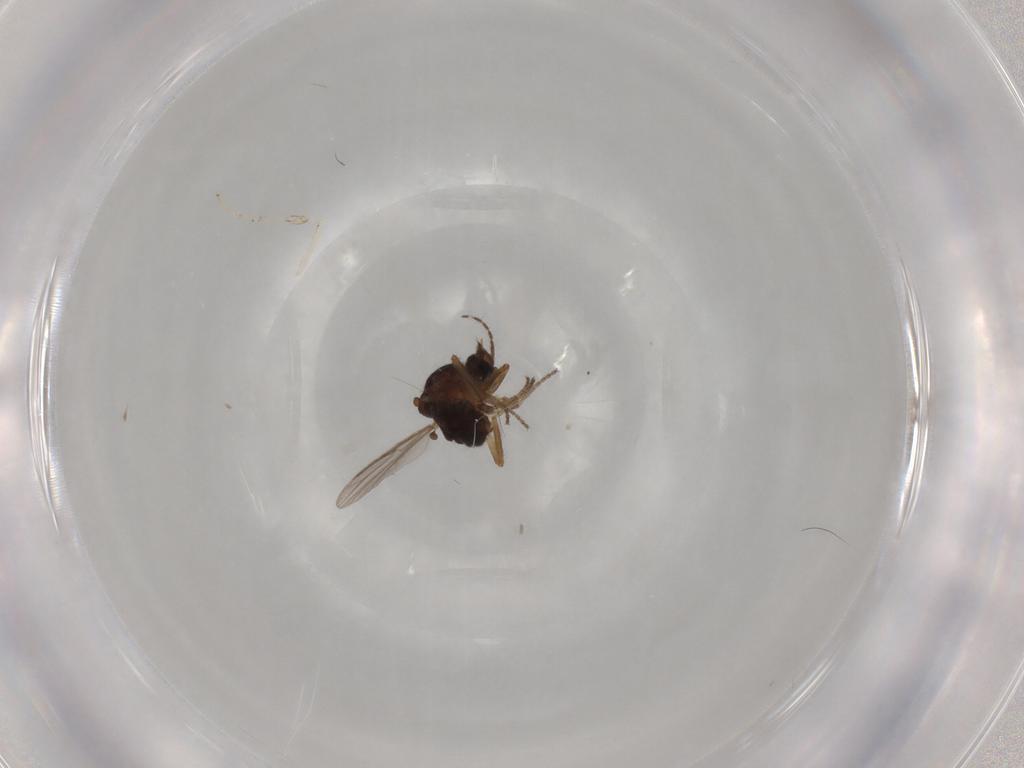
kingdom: Animalia
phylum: Arthropoda
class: Insecta
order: Diptera
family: Ceratopogonidae
